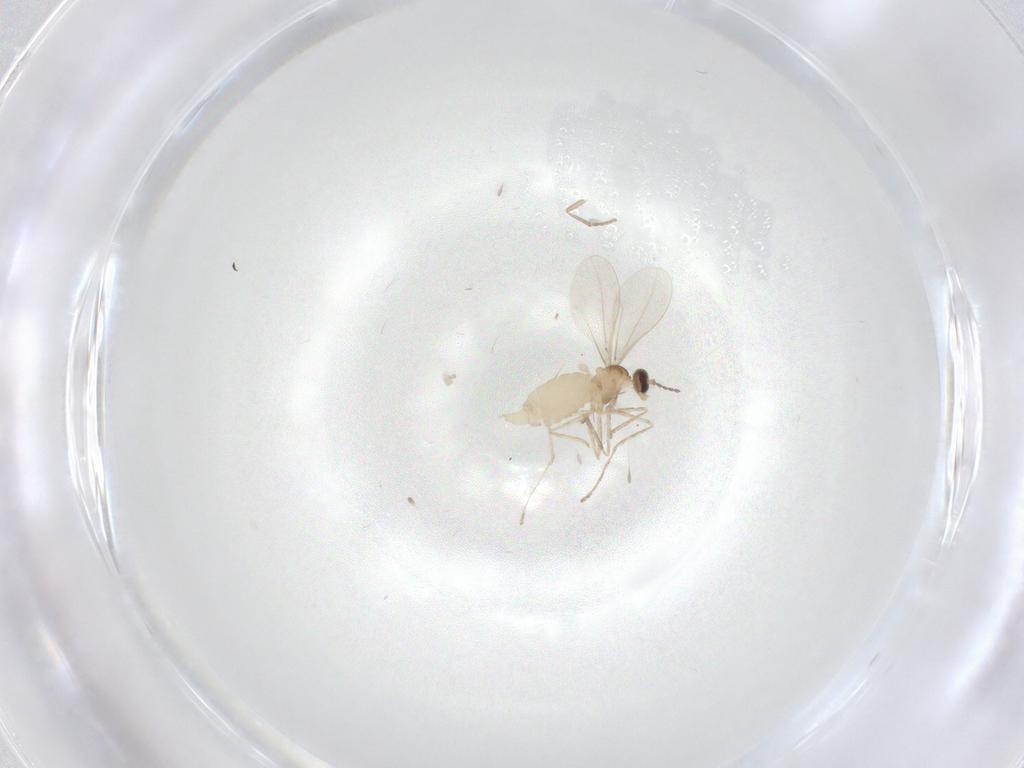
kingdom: Animalia
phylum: Arthropoda
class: Insecta
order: Diptera
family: Cecidomyiidae
